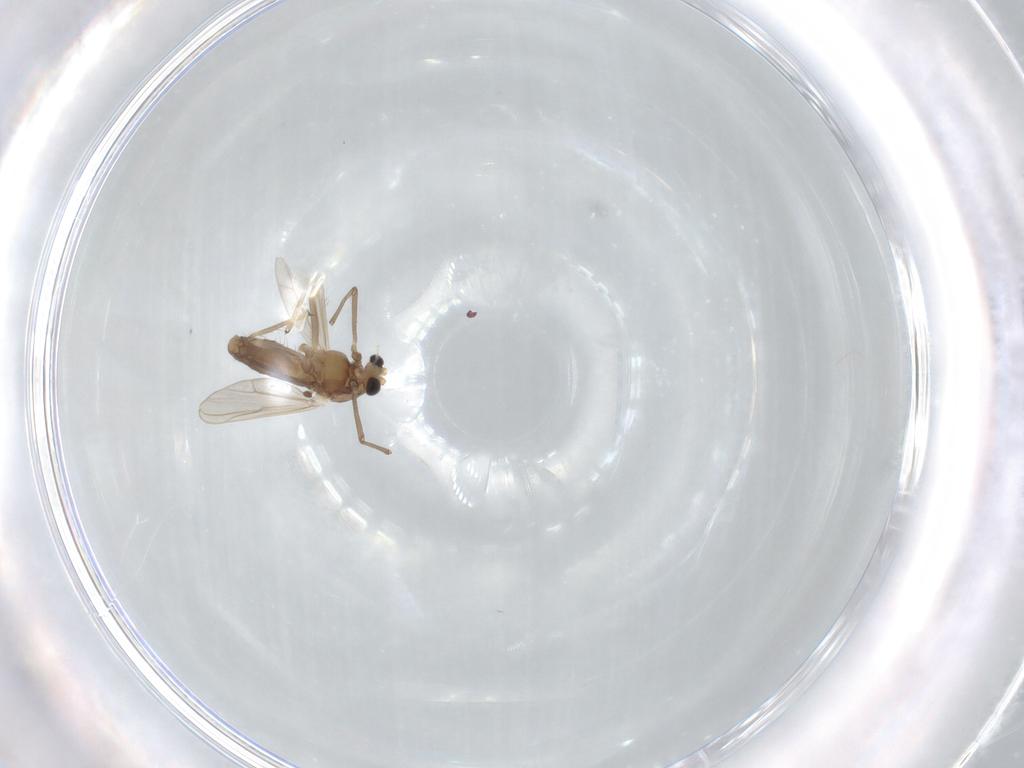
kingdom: Animalia
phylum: Arthropoda
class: Insecta
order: Diptera
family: Chironomidae
